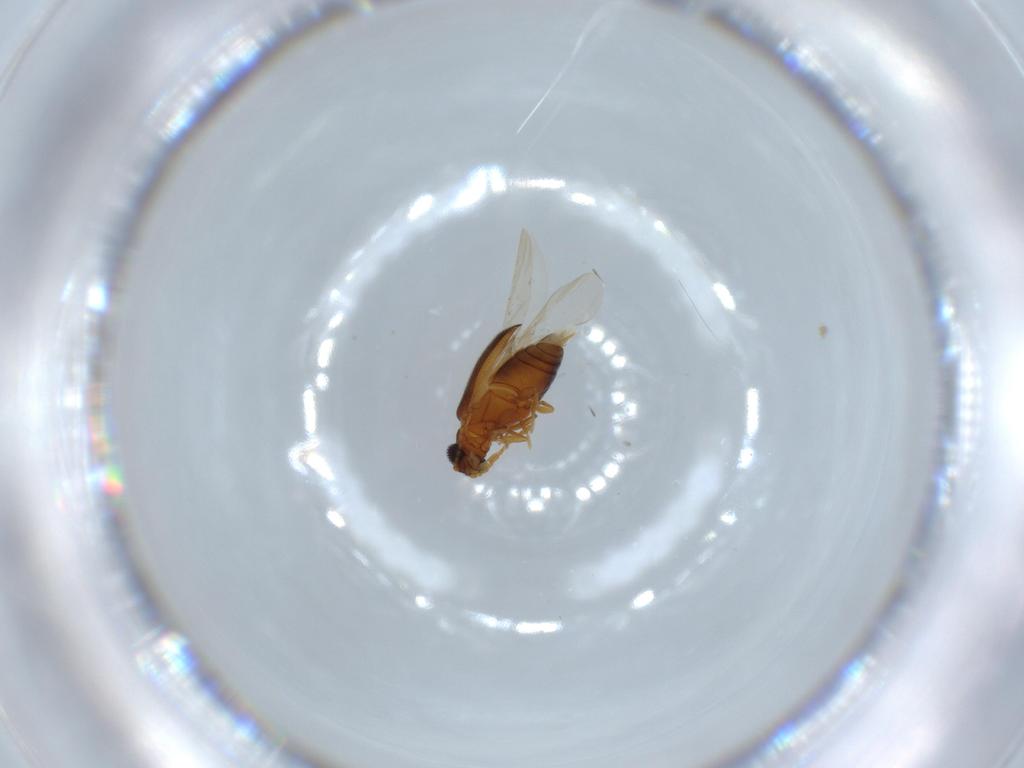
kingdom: Animalia
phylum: Arthropoda
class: Insecta
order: Coleoptera
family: Aderidae
